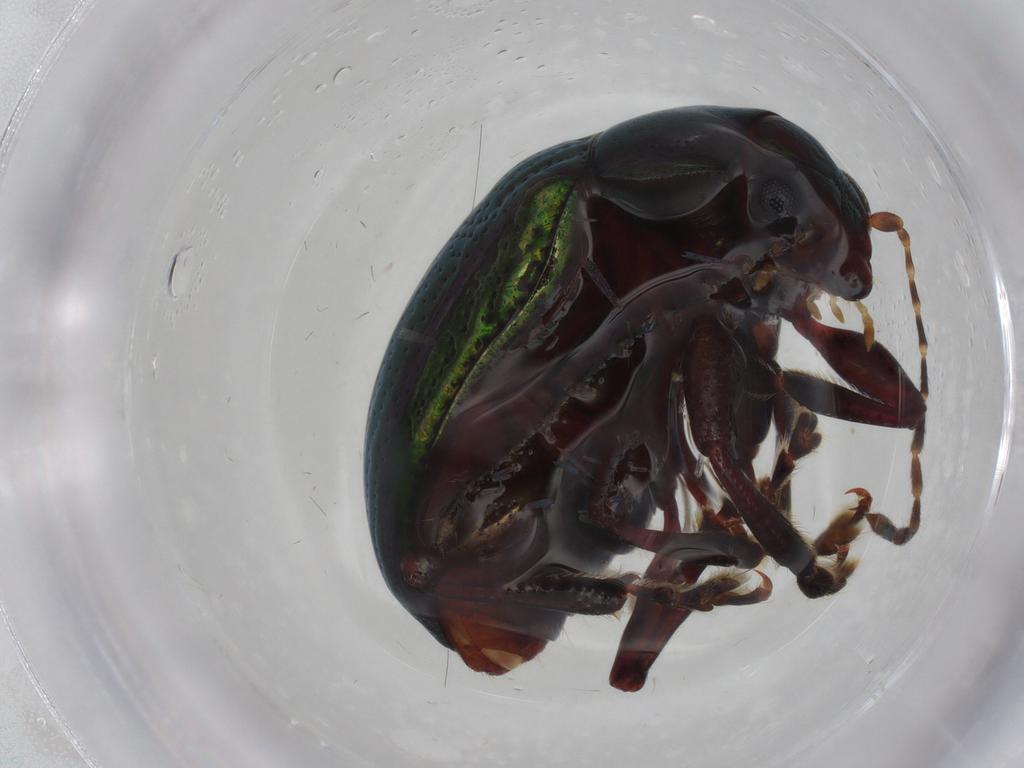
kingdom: Animalia
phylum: Arthropoda
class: Insecta
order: Coleoptera
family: Chrysomelidae
